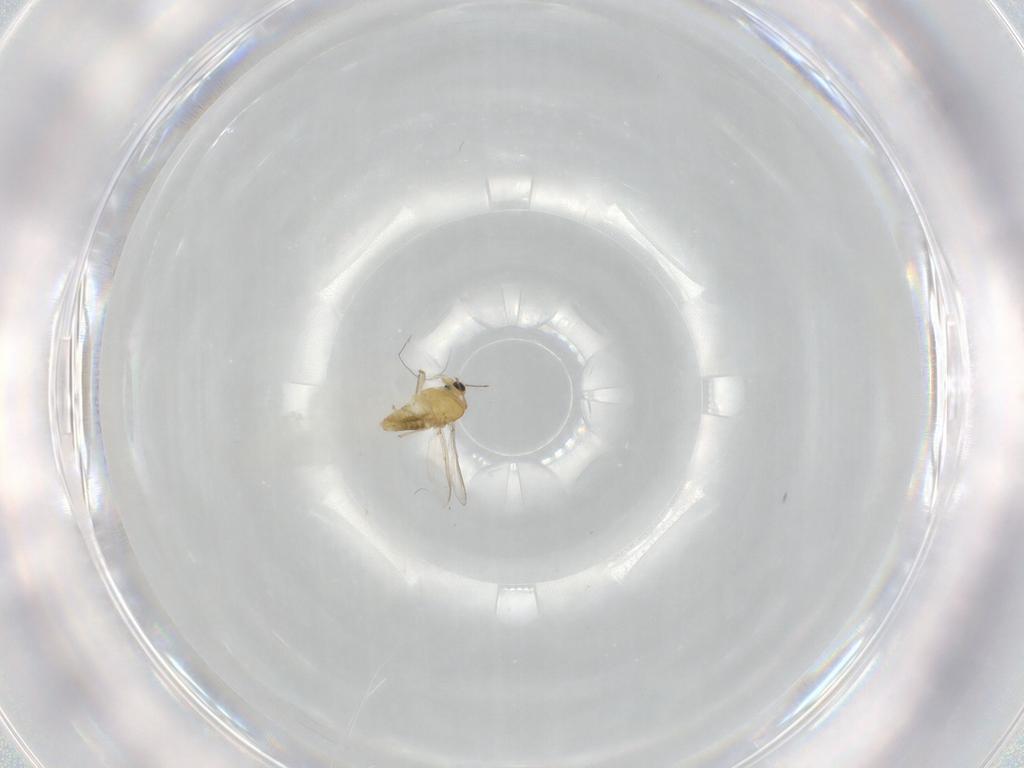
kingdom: Animalia
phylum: Arthropoda
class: Insecta
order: Diptera
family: Chironomidae
